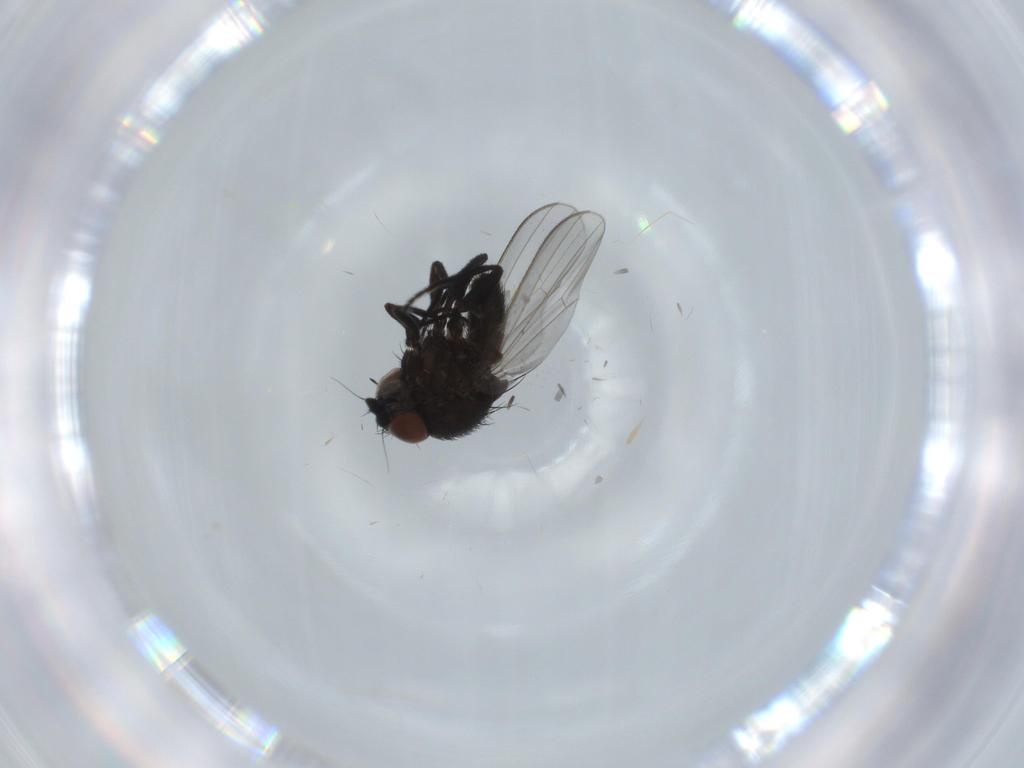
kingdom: Animalia
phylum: Arthropoda
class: Insecta
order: Diptera
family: Milichiidae
